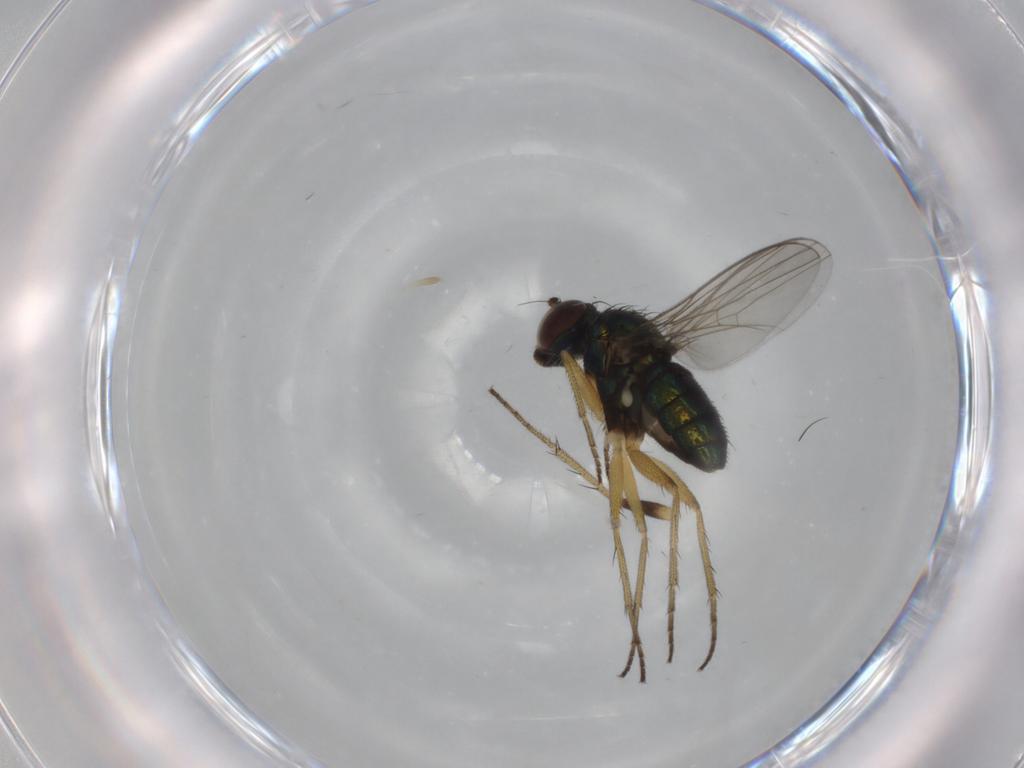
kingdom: Animalia
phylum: Arthropoda
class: Insecta
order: Diptera
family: Dolichopodidae
